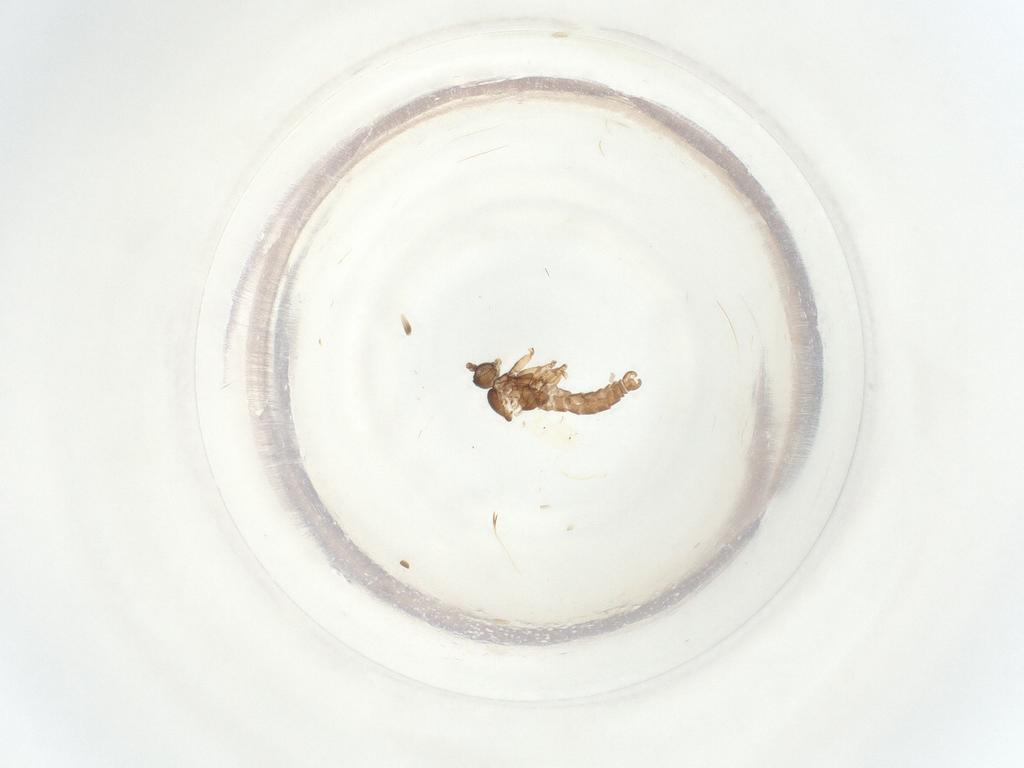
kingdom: Animalia
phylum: Arthropoda
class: Insecta
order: Diptera
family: Sciaridae
